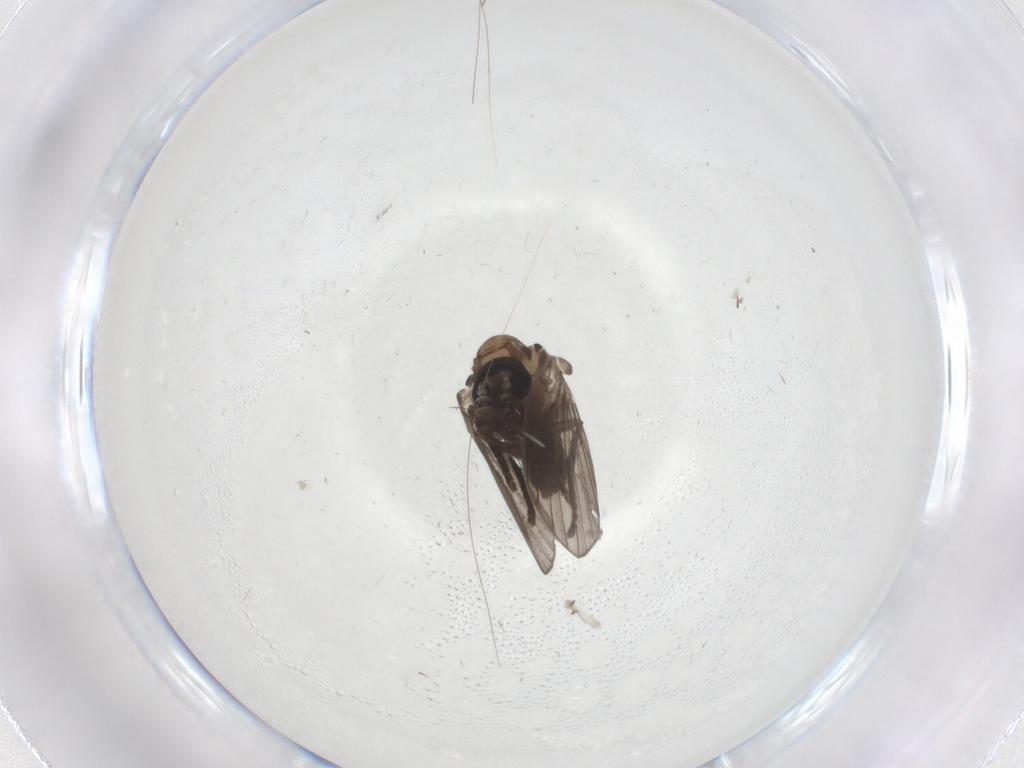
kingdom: Animalia
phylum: Arthropoda
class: Insecta
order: Diptera
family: Psychodidae
